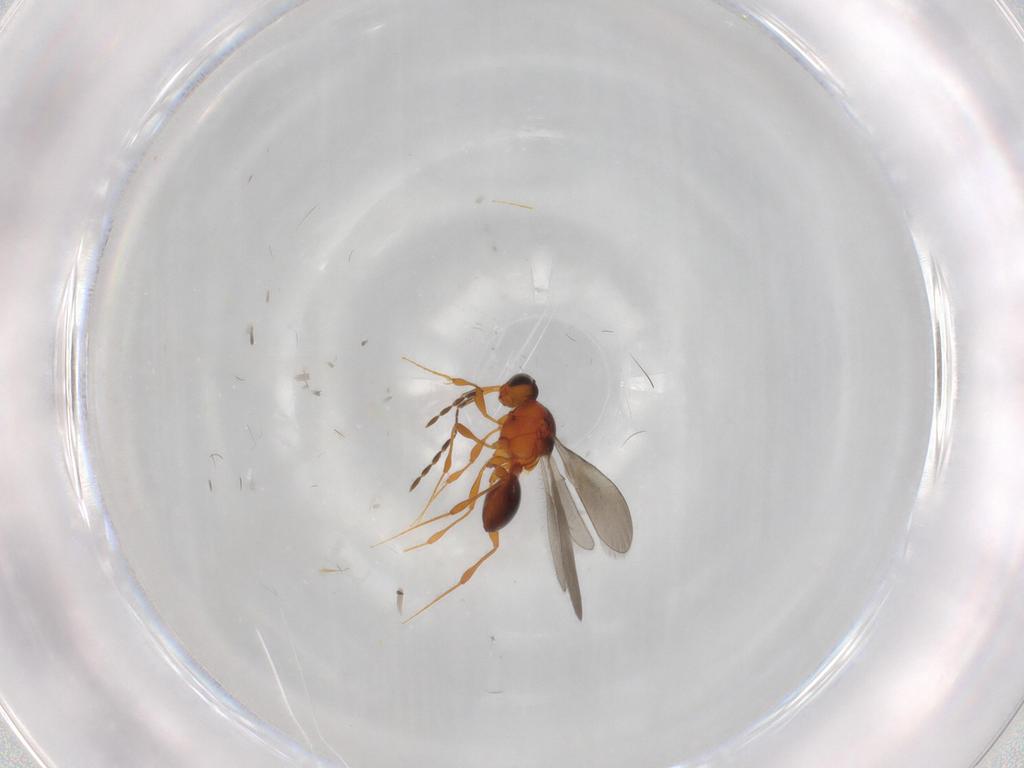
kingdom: Animalia
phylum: Arthropoda
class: Insecta
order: Hymenoptera
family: Platygastridae
